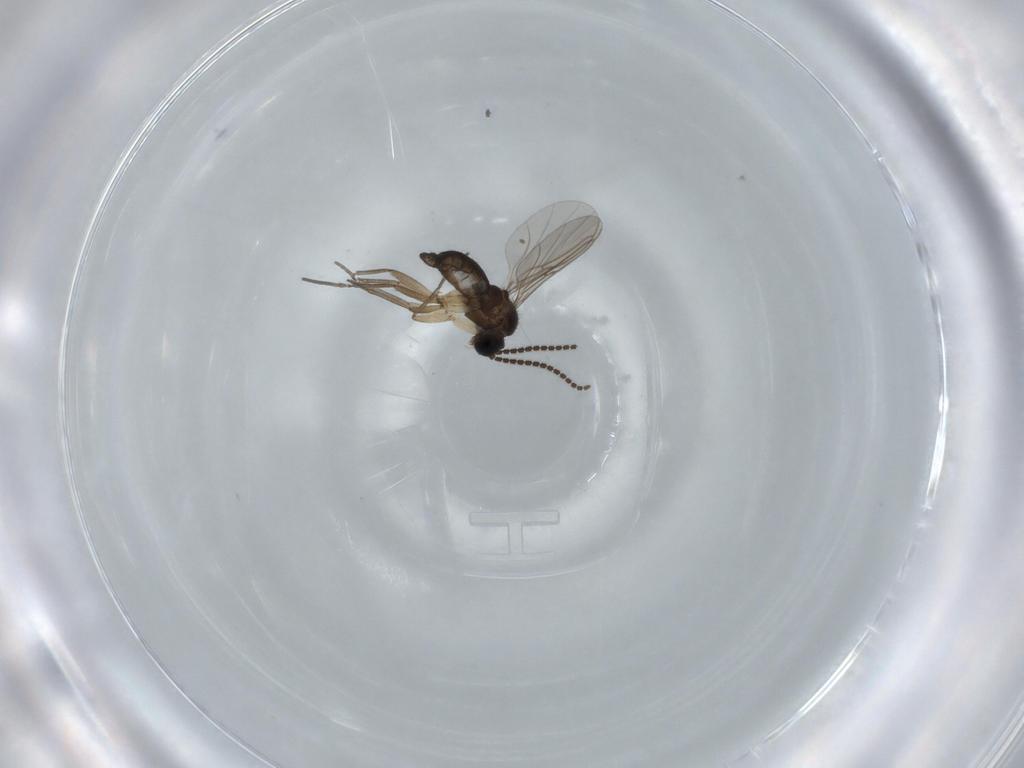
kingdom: Animalia
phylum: Arthropoda
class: Insecta
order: Diptera
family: Sciaridae
